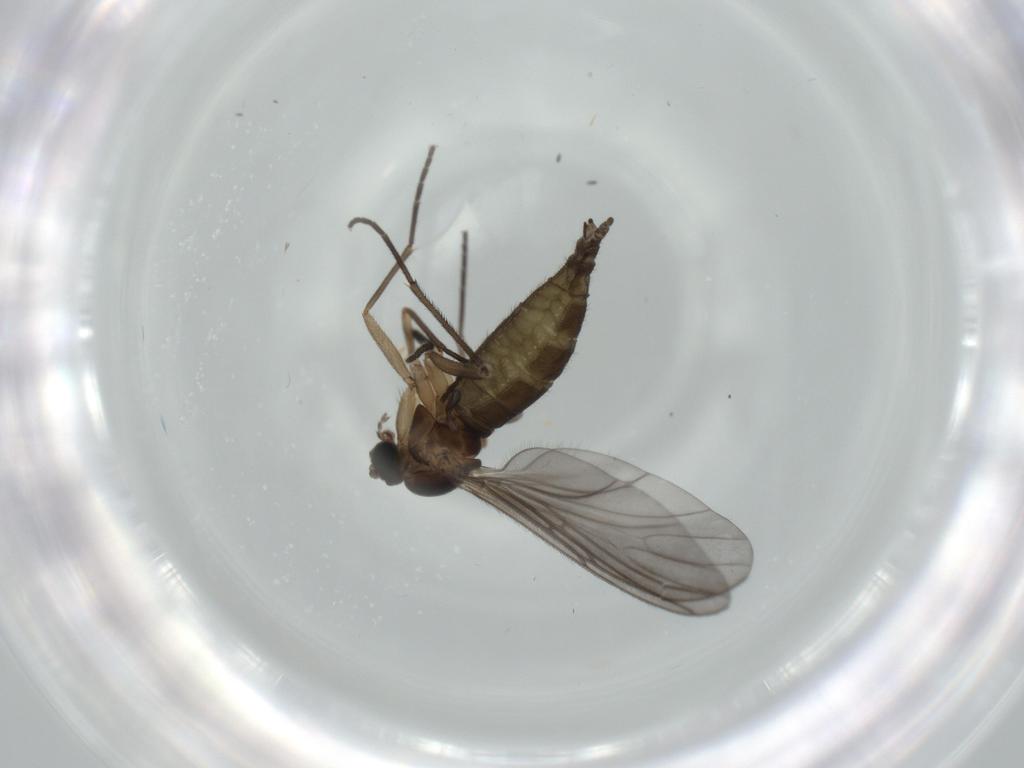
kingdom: Animalia
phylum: Arthropoda
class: Insecta
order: Diptera
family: Cecidomyiidae
